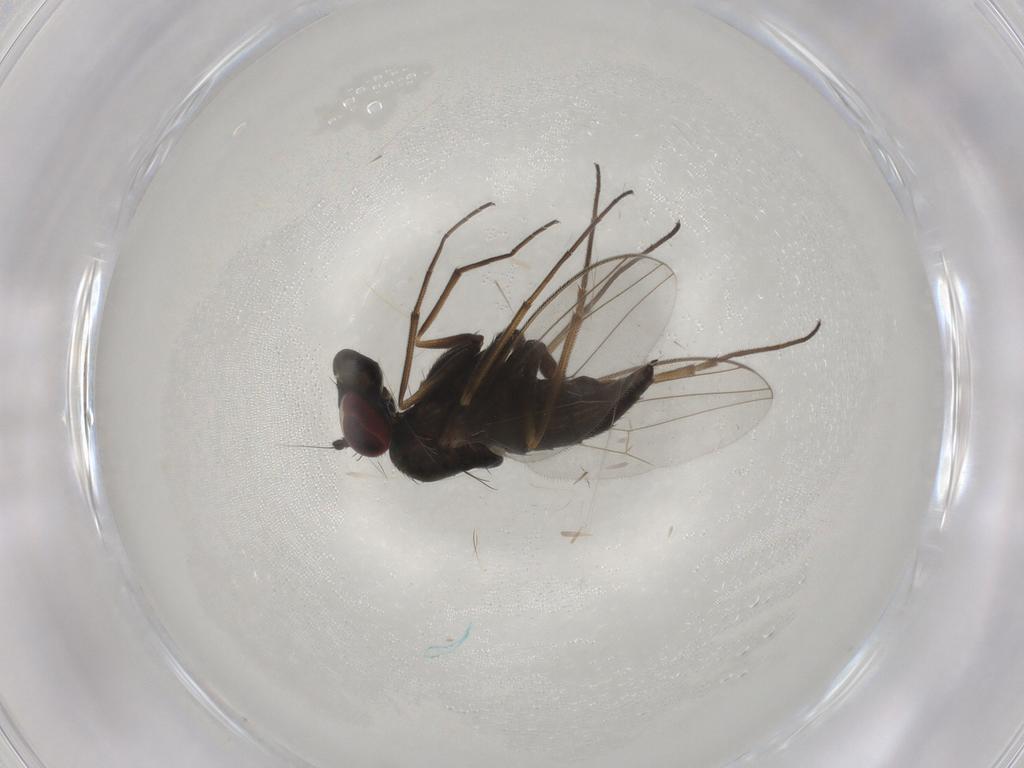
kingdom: Animalia
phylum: Arthropoda
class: Insecta
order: Diptera
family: Dolichopodidae
